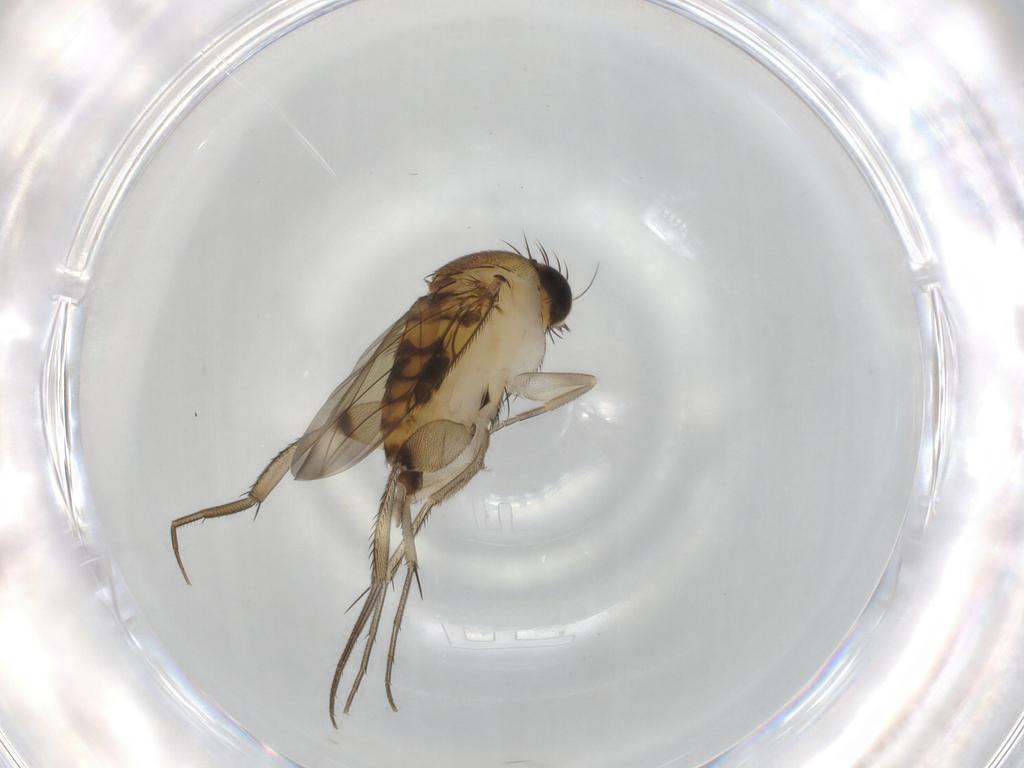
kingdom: Animalia
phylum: Arthropoda
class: Insecta
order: Diptera
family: Phoridae
